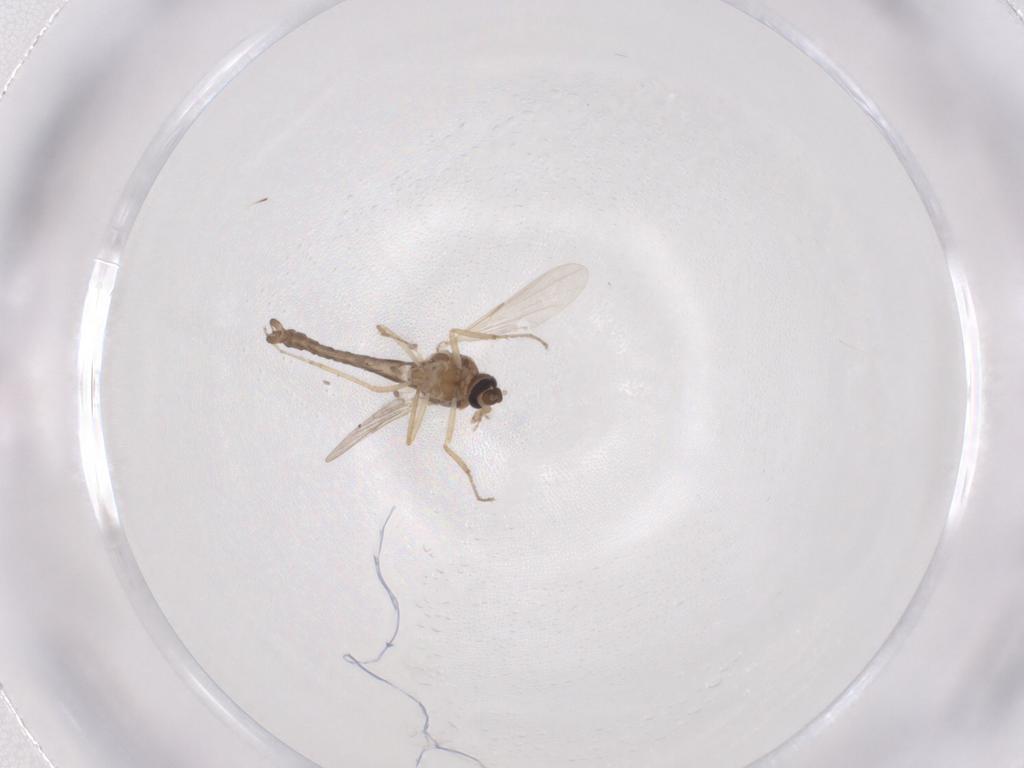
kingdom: Animalia
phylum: Arthropoda
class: Insecta
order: Diptera
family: Ceratopogonidae
